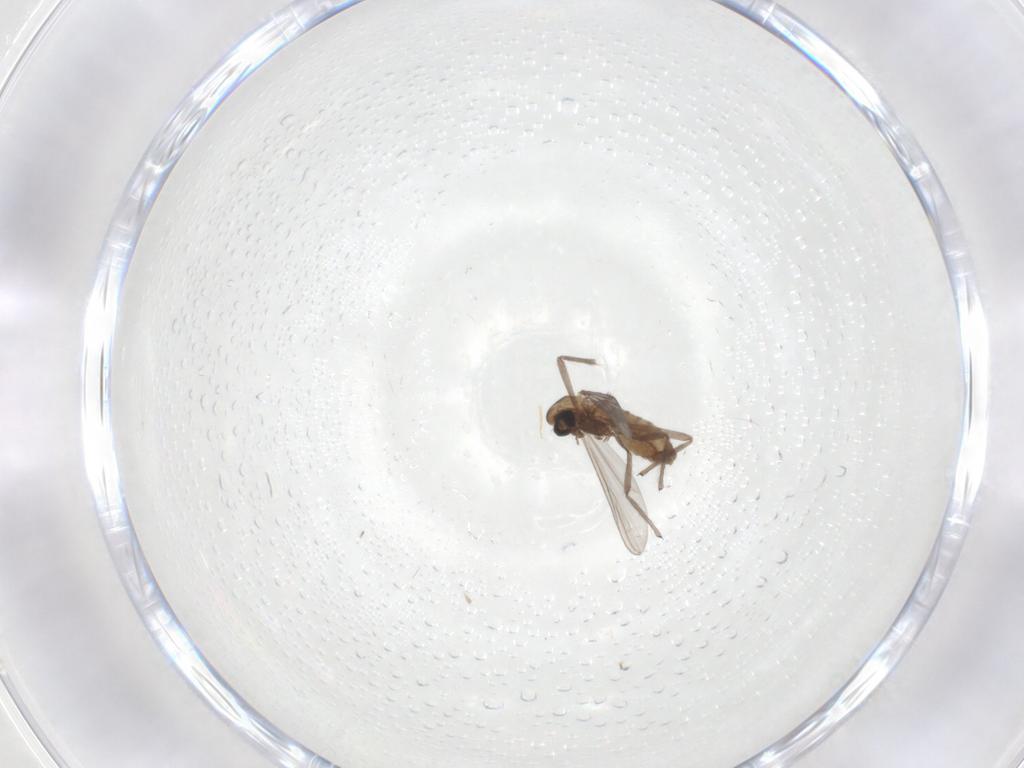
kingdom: Animalia
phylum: Arthropoda
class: Insecta
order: Diptera
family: Chironomidae
